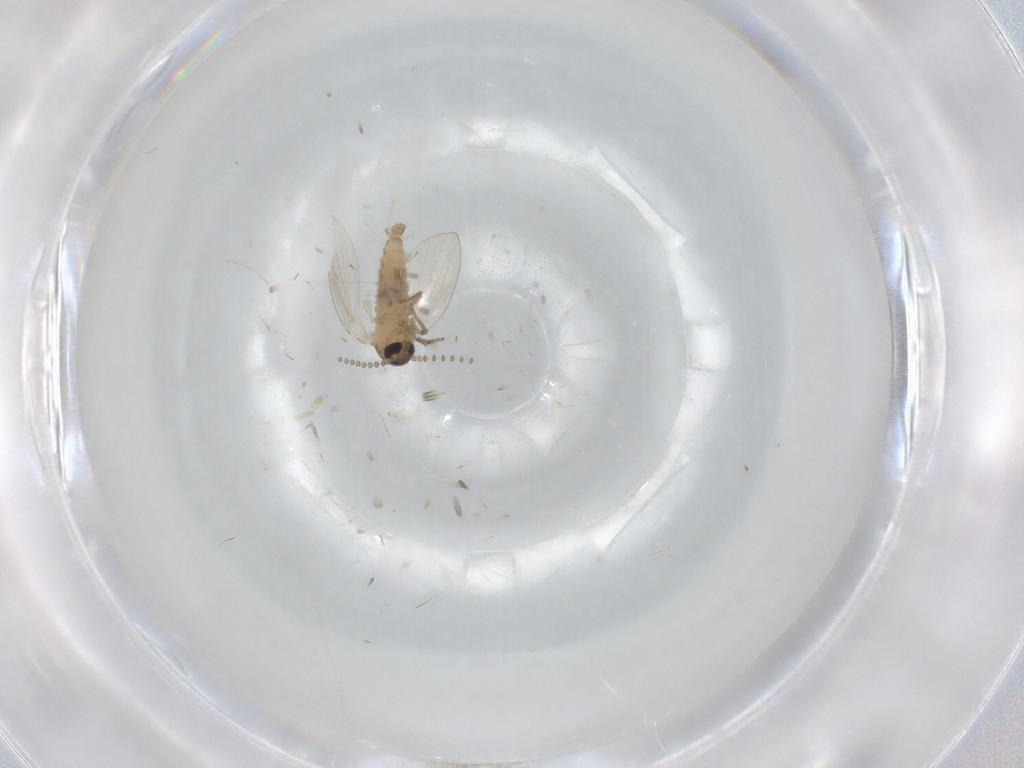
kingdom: Animalia
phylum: Arthropoda
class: Insecta
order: Diptera
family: Psychodidae
